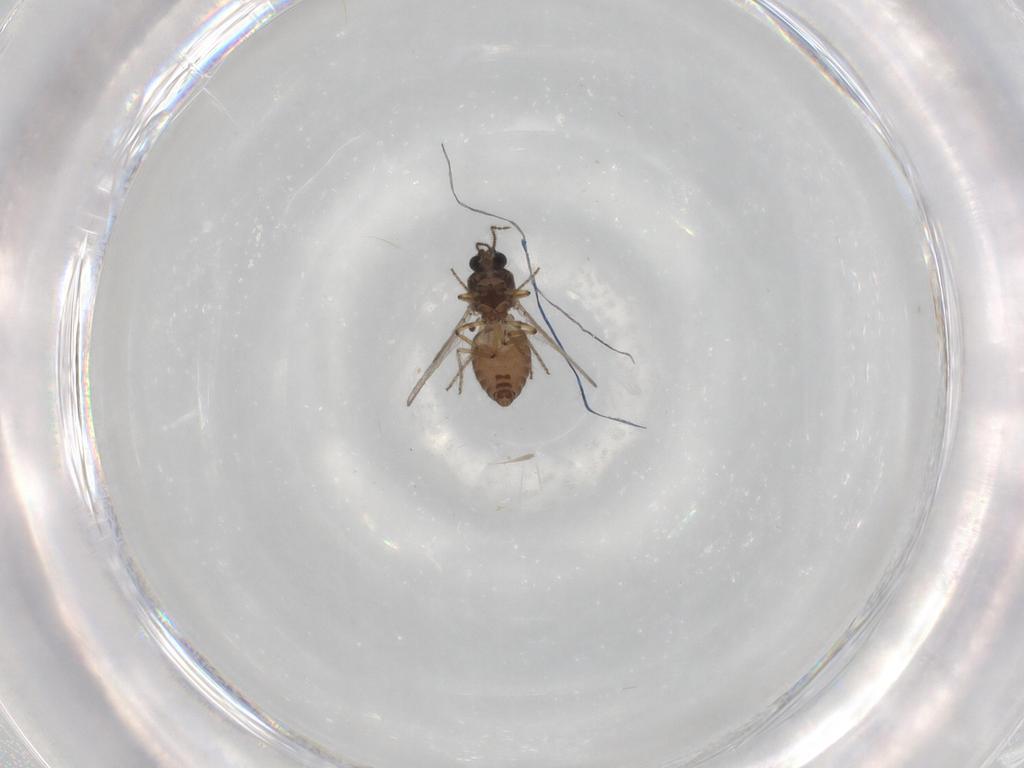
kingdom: Animalia
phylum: Arthropoda
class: Insecta
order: Diptera
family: Ceratopogonidae
